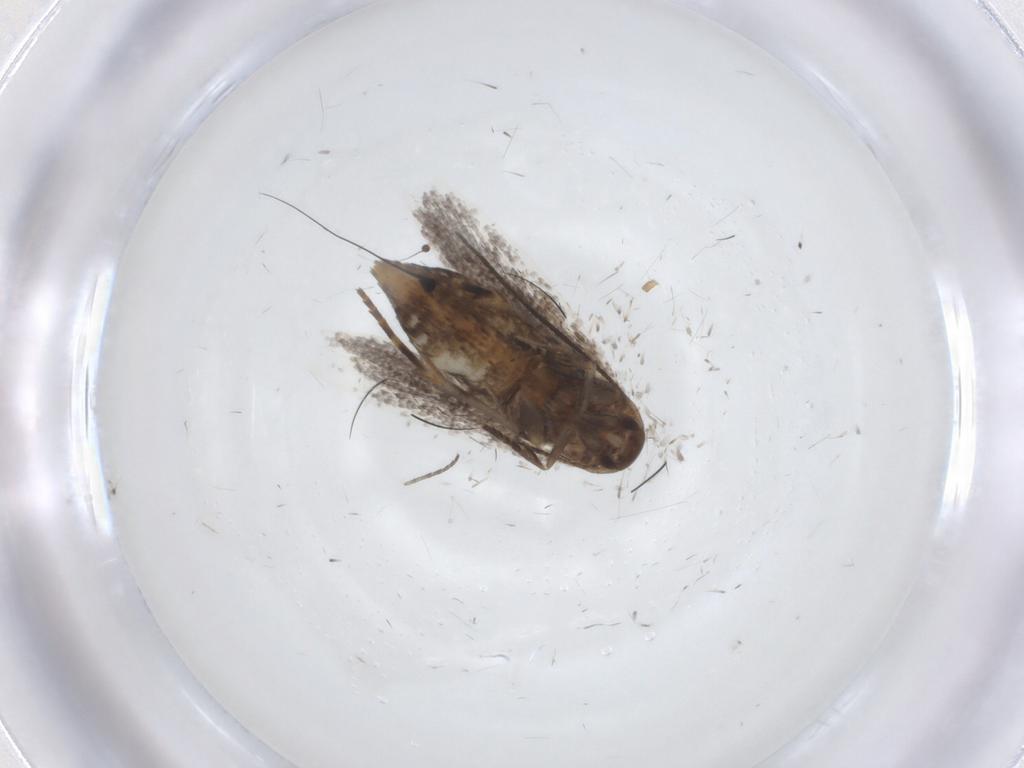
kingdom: Animalia
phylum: Arthropoda
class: Insecta
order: Lepidoptera
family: Elachistidae
